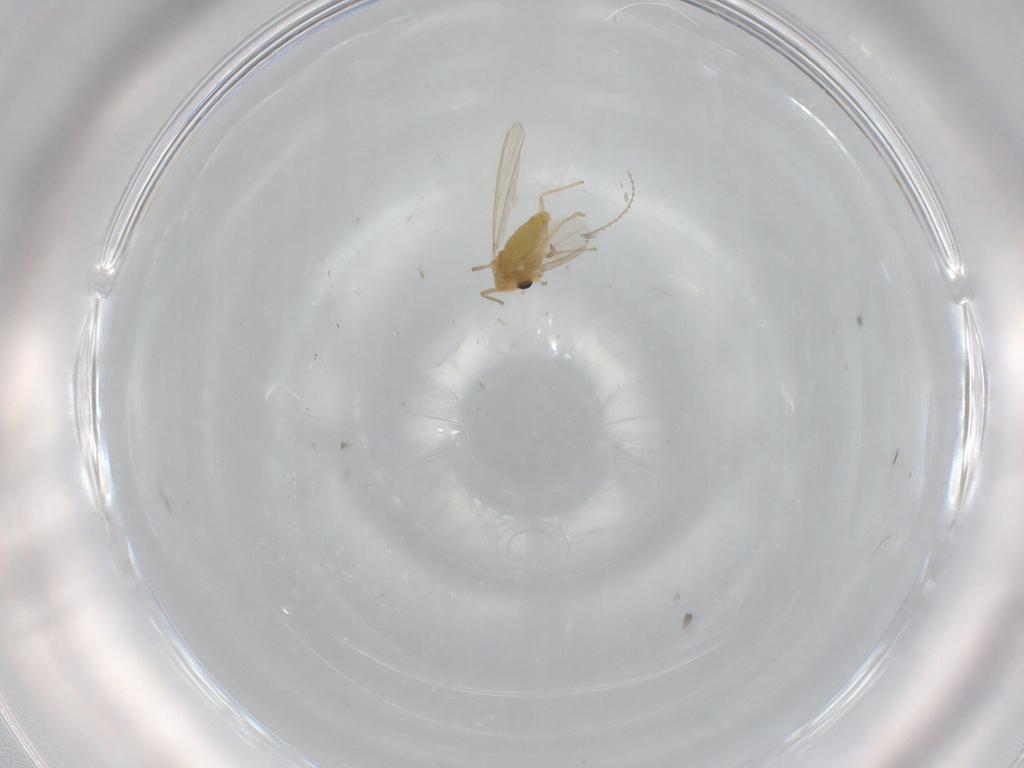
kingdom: Animalia
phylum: Arthropoda
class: Insecta
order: Diptera
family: Chironomidae
